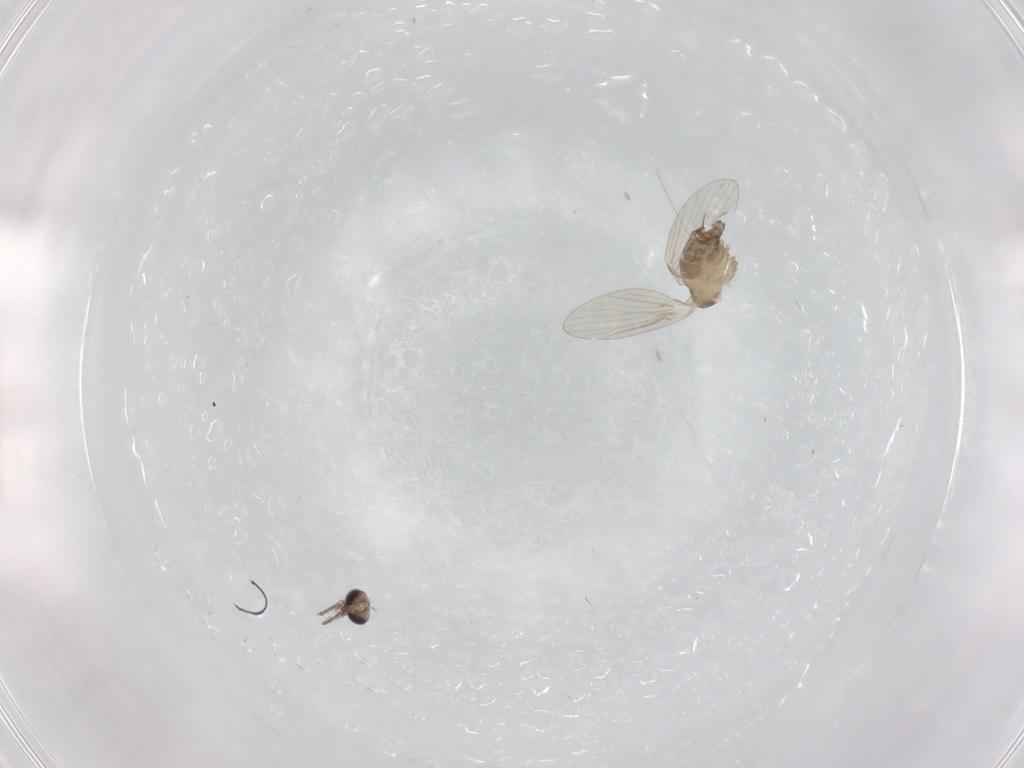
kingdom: Animalia
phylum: Arthropoda
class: Insecta
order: Diptera
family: Psychodidae
